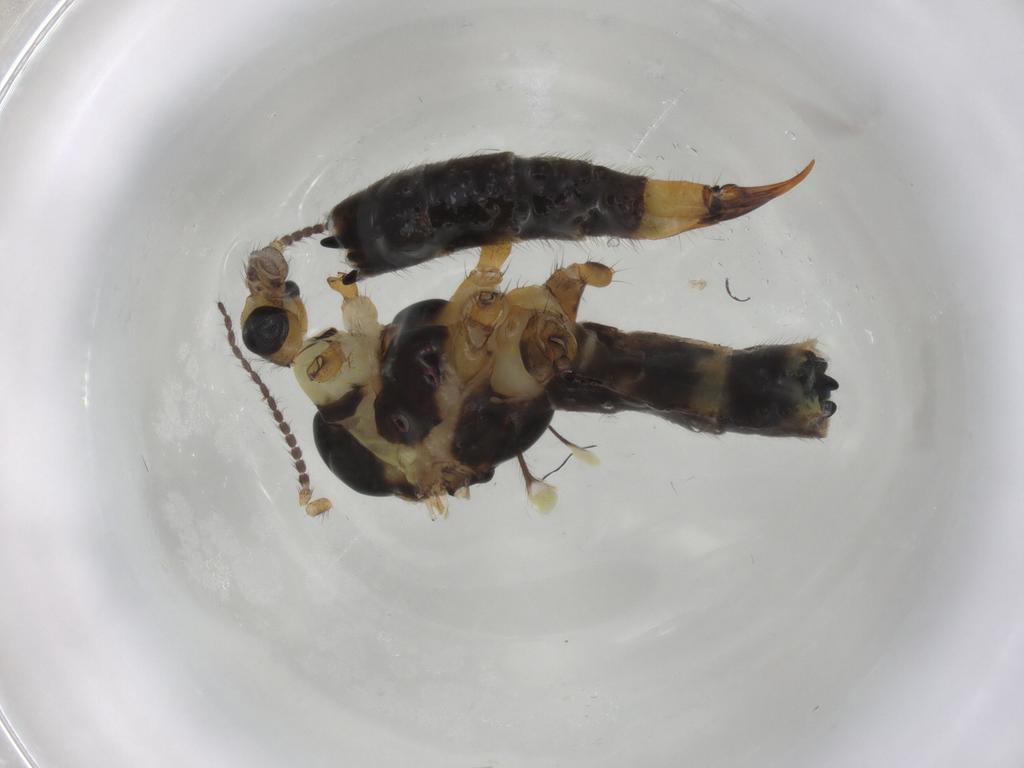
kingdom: Animalia
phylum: Arthropoda
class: Insecta
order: Diptera
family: Limoniidae
